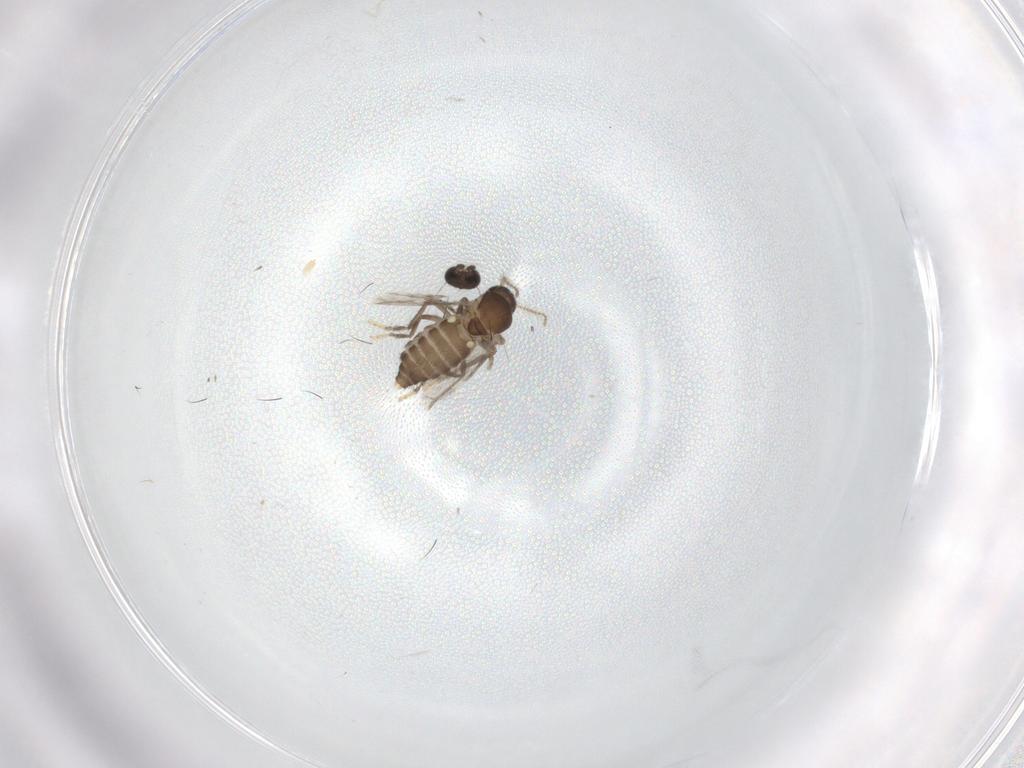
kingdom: Animalia
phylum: Arthropoda
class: Insecta
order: Diptera
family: Ceratopogonidae
